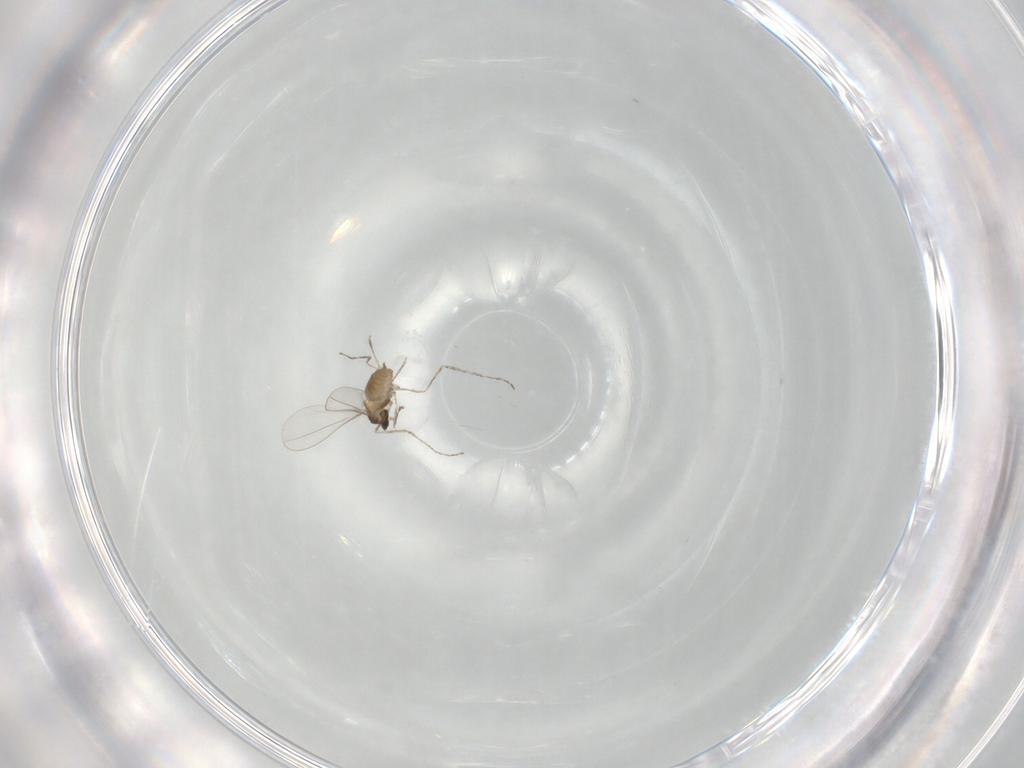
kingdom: Animalia
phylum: Arthropoda
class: Insecta
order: Diptera
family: Cecidomyiidae
